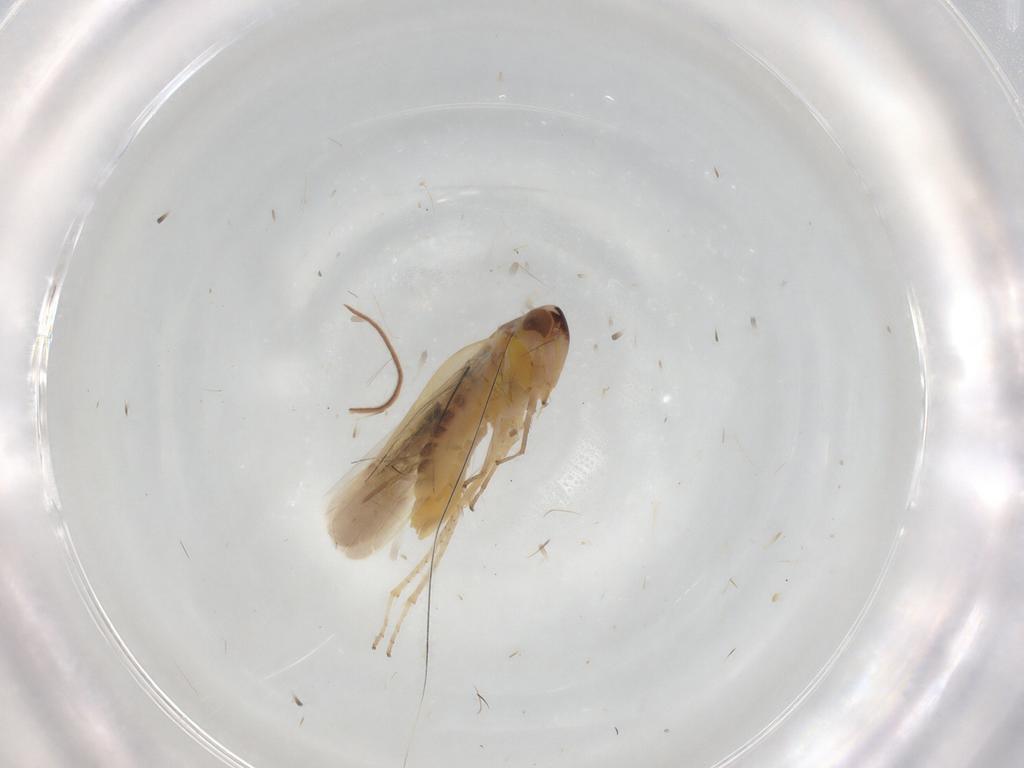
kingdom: Animalia
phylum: Arthropoda
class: Insecta
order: Hemiptera
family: Cicadellidae
